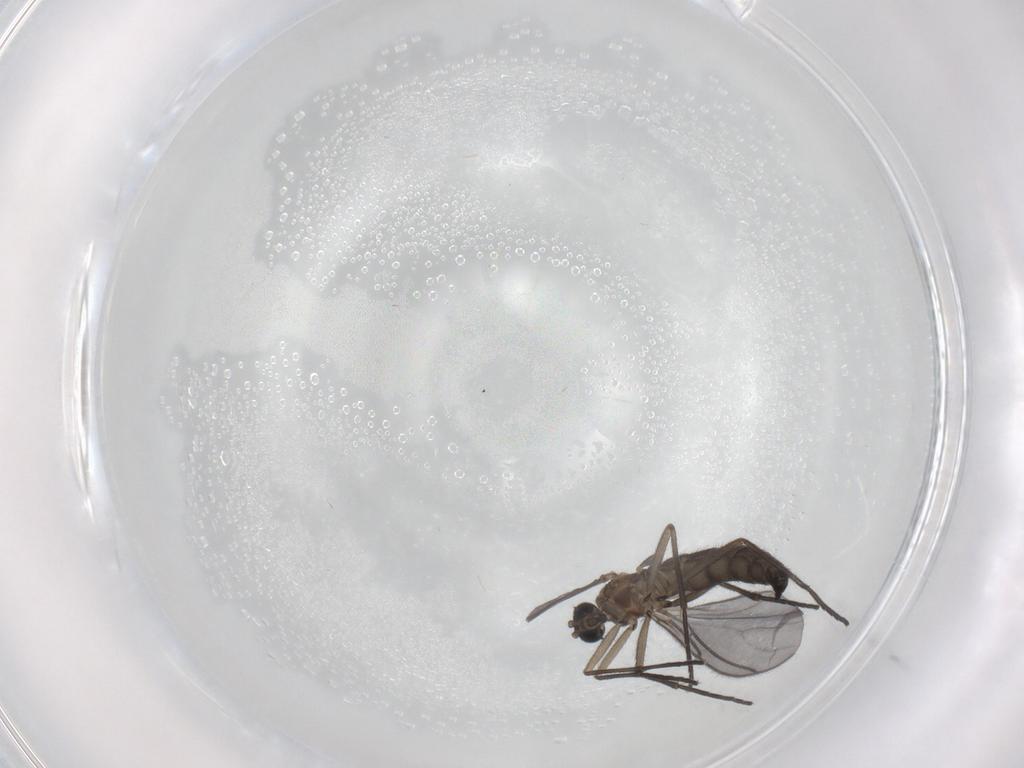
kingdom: Animalia
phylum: Arthropoda
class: Insecta
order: Diptera
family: Sciaridae
